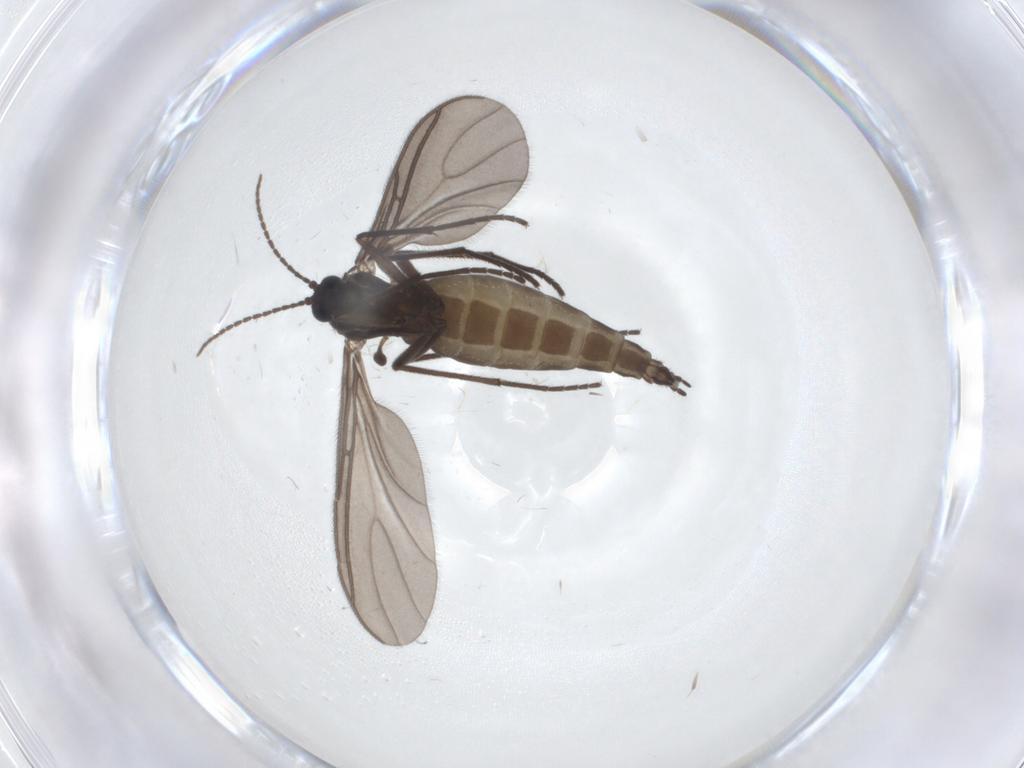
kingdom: Animalia
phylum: Arthropoda
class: Insecta
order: Diptera
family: Sciaridae
